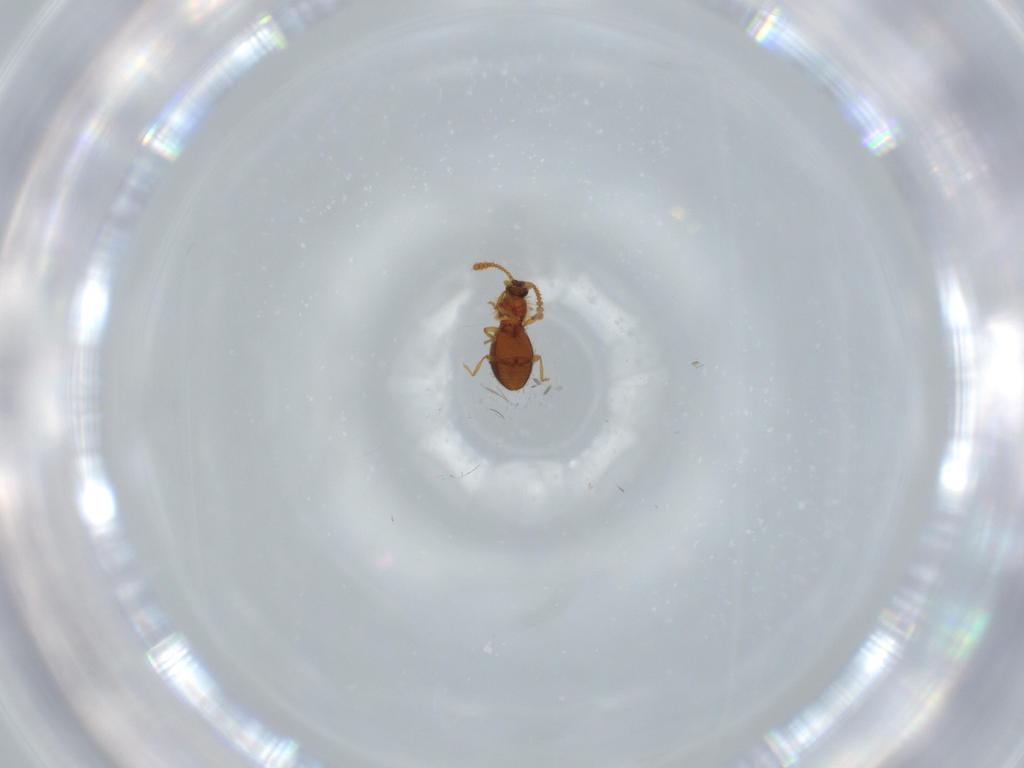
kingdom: Animalia
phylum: Arthropoda
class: Insecta
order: Coleoptera
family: Staphylinidae
